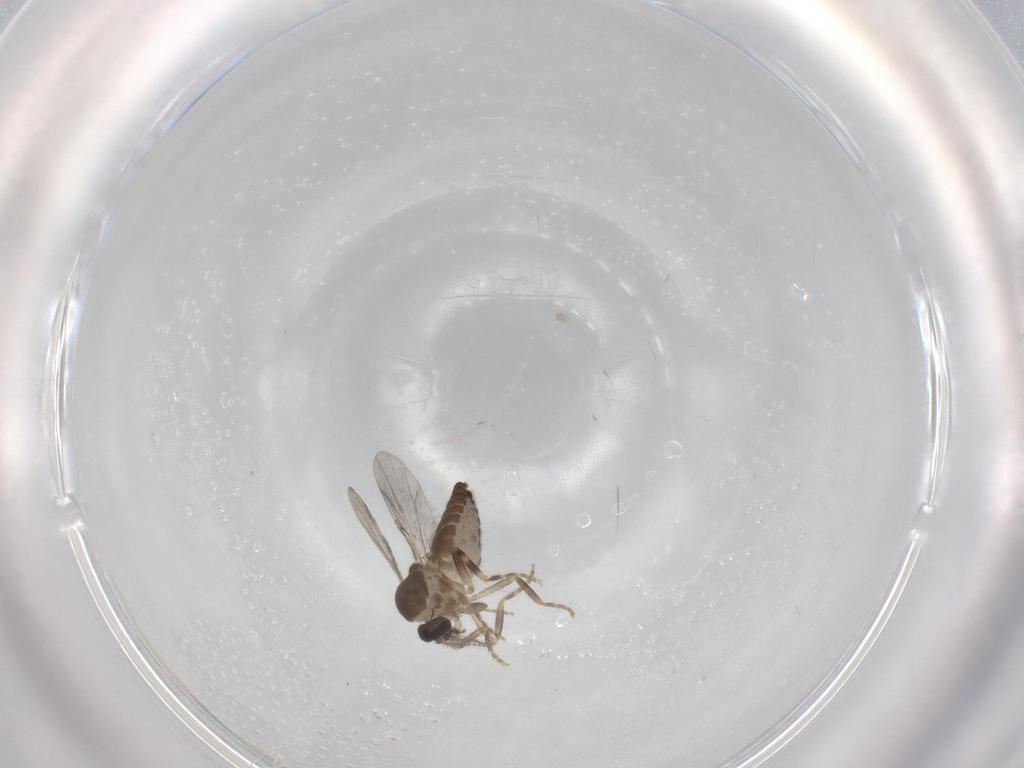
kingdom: Animalia
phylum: Arthropoda
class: Insecta
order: Diptera
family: Ceratopogonidae
